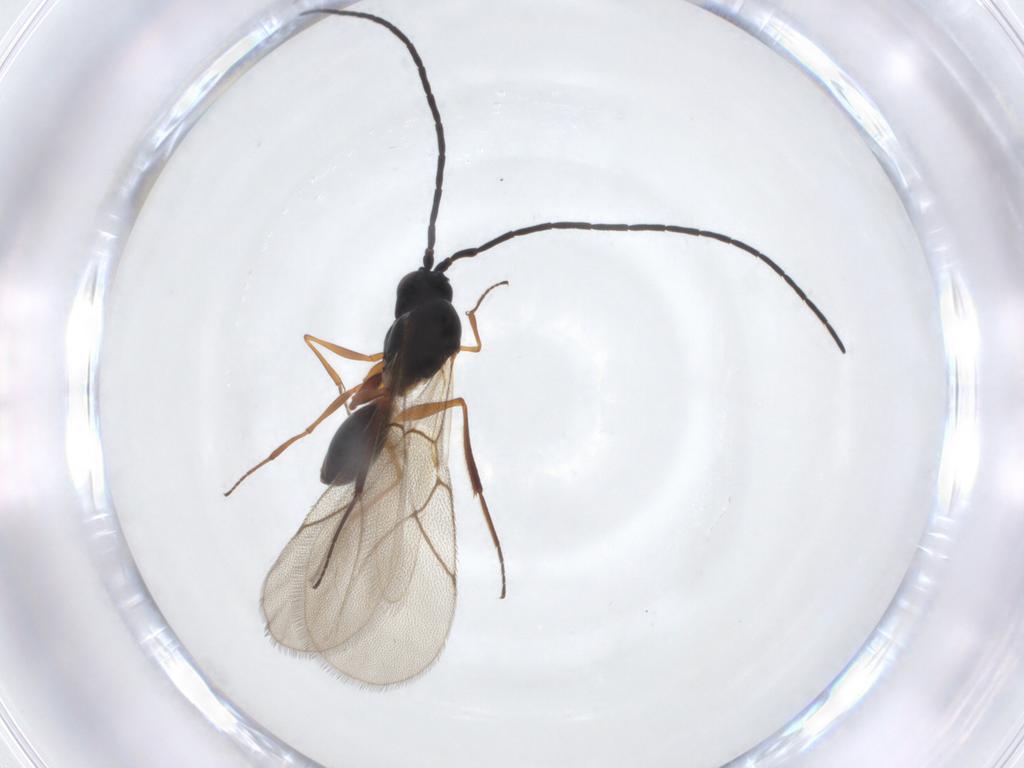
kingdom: Animalia
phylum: Arthropoda
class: Insecta
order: Hymenoptera
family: Figitidae
